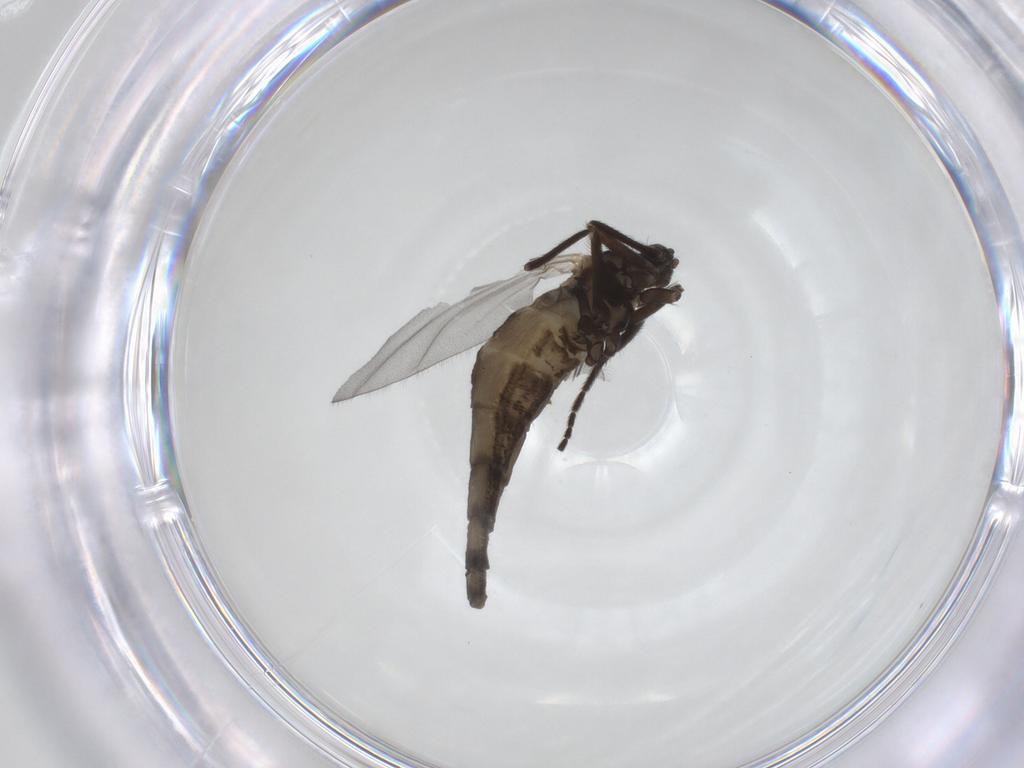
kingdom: Animalia
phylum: Arthropoda
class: Insecta
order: Diptera
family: Cecidomyiidae
